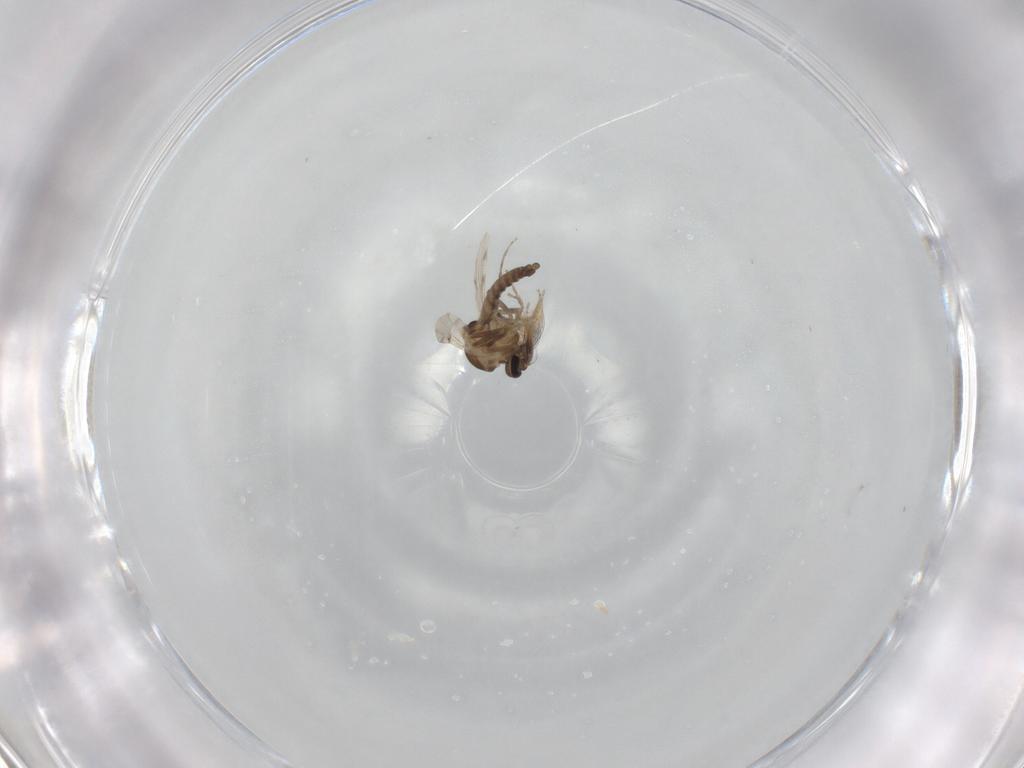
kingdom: Animalia
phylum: Arthropoda
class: Insecta
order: Diptera
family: Ceratopogonidae
